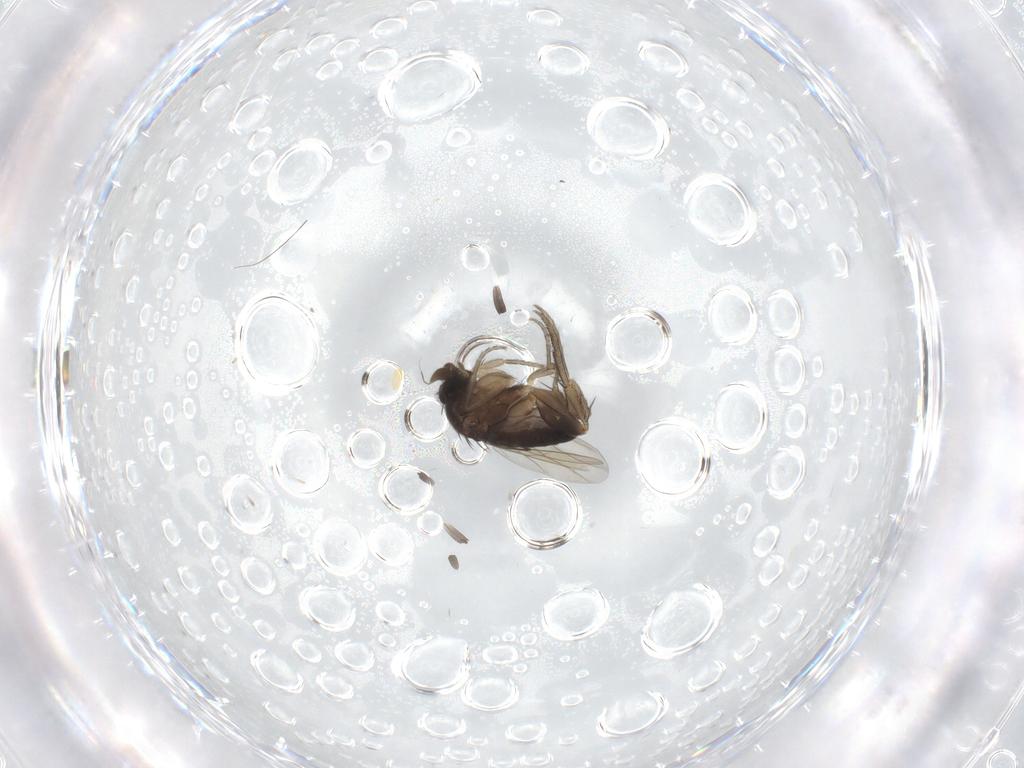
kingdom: Animalia
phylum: Arthropoda
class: Insecta
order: Diptera
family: Phoridae
